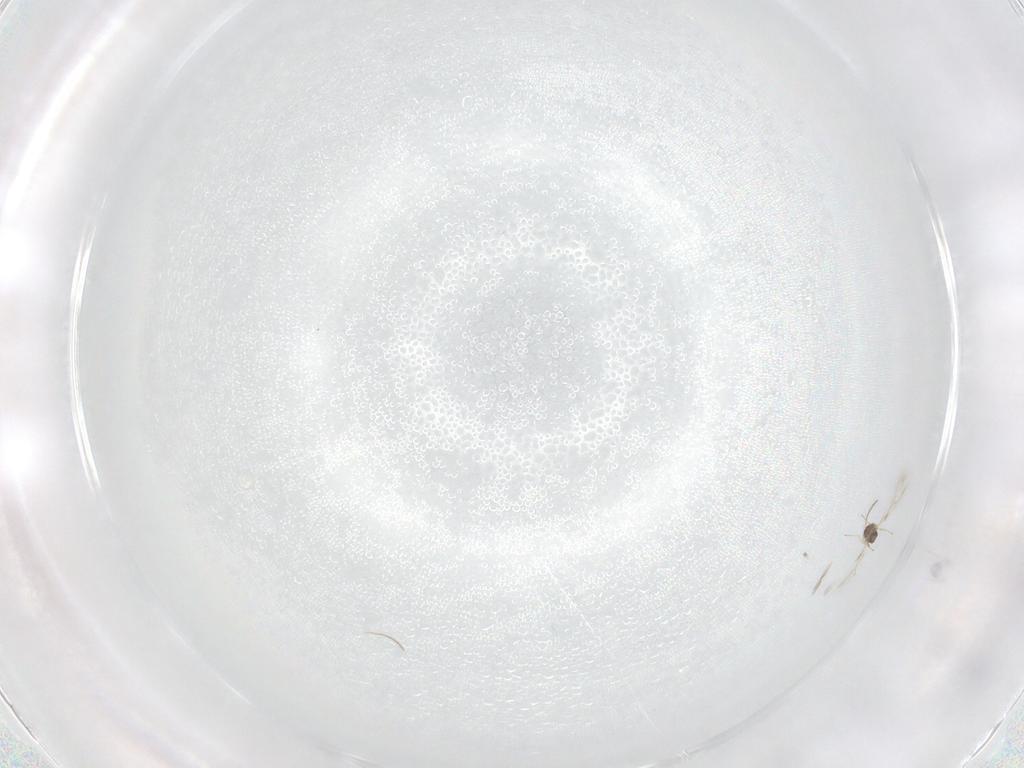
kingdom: Animalia
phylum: Arthropoda
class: Insecta
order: Hymenoptera
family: Mymaridae
